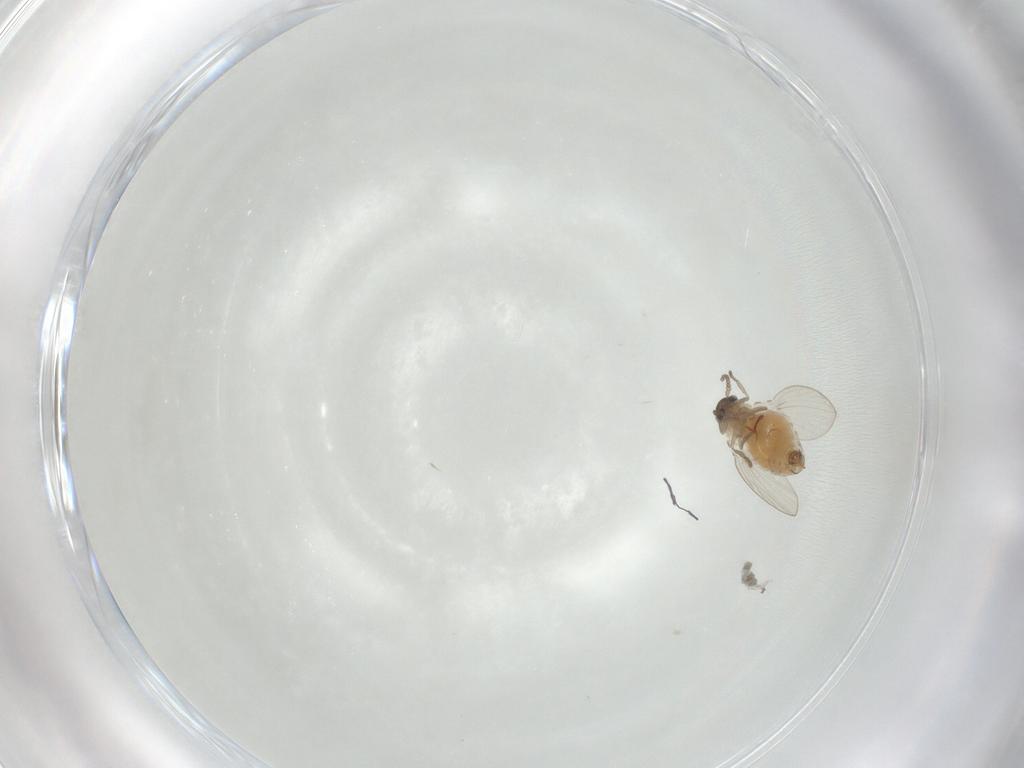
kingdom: Animalia
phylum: Arthropoda
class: Insecta
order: Diptera
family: Psychodidae
